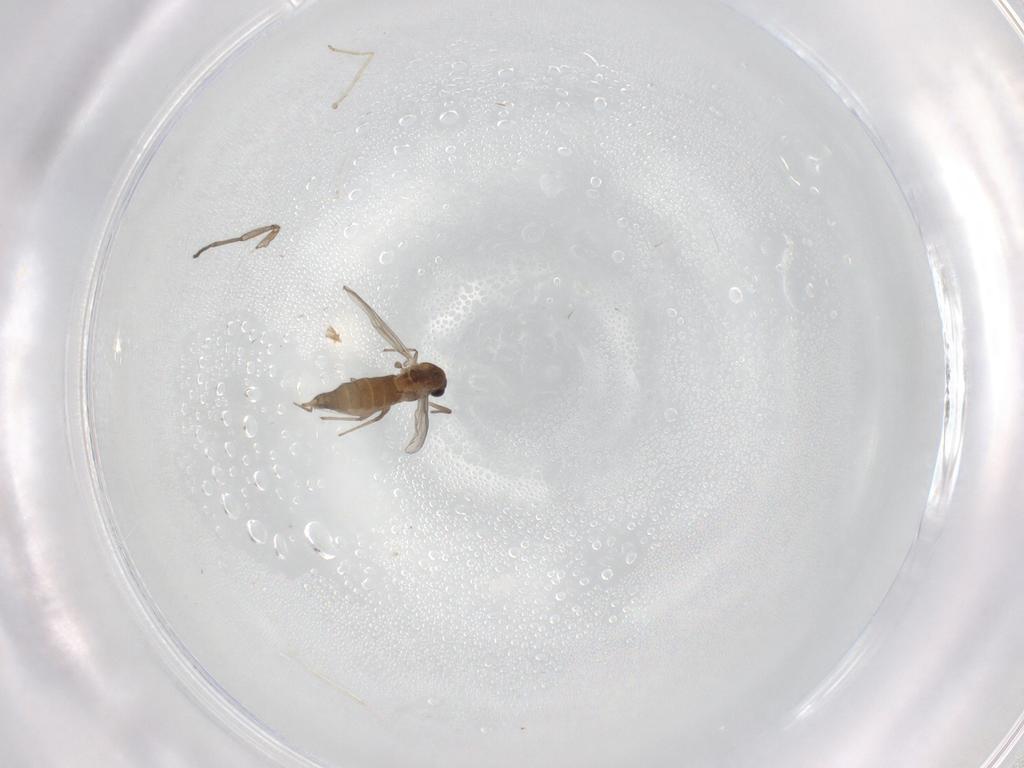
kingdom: Animalia
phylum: Arthropoda
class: Insecta
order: Diptera
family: Chironomidae
